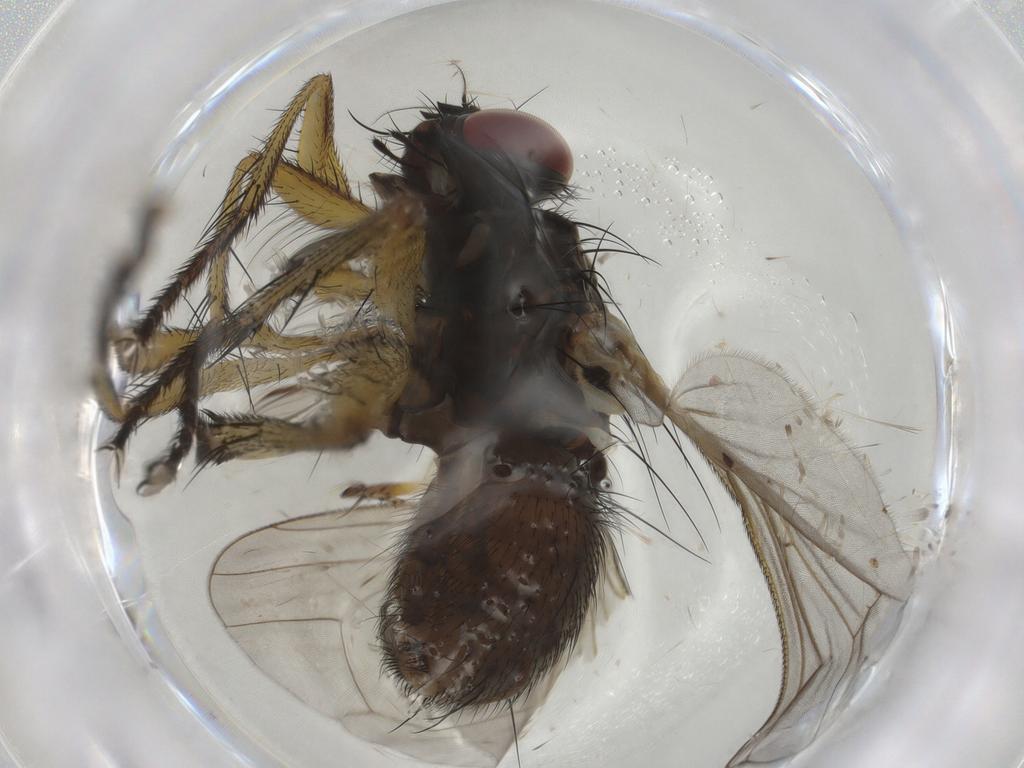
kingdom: Animalia
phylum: Arthropoda
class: Insecta
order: Diptera
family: Muscidae
